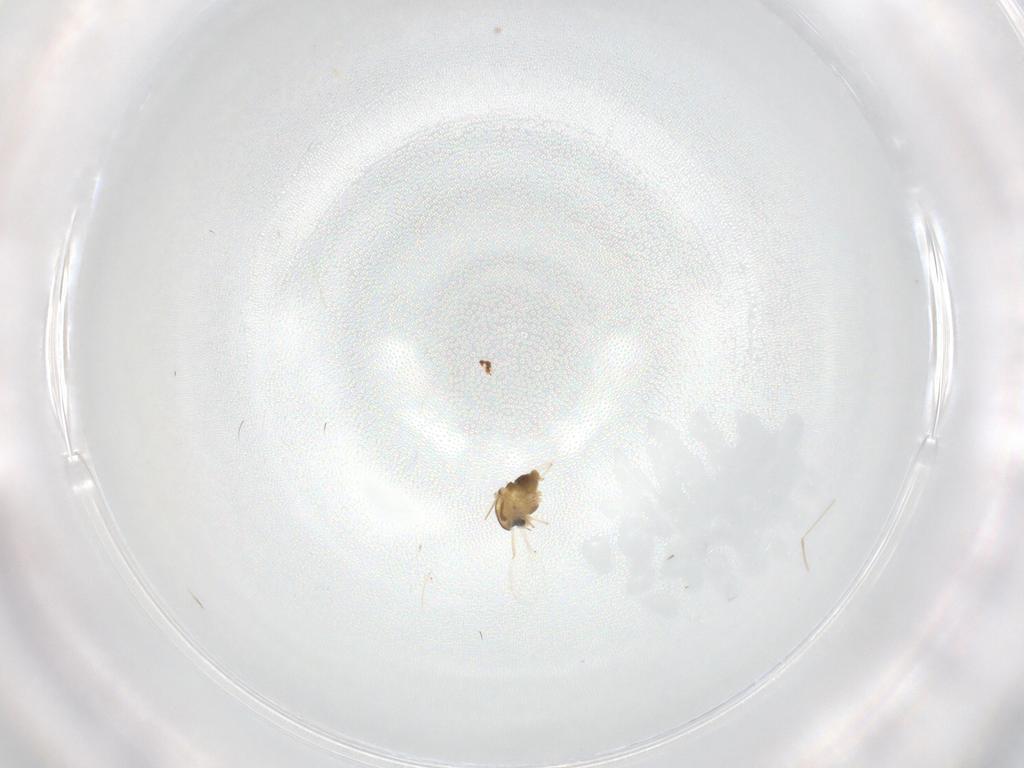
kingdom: Animalia
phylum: Arthropoda
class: Insecta
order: Diptera
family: Chironomidae
